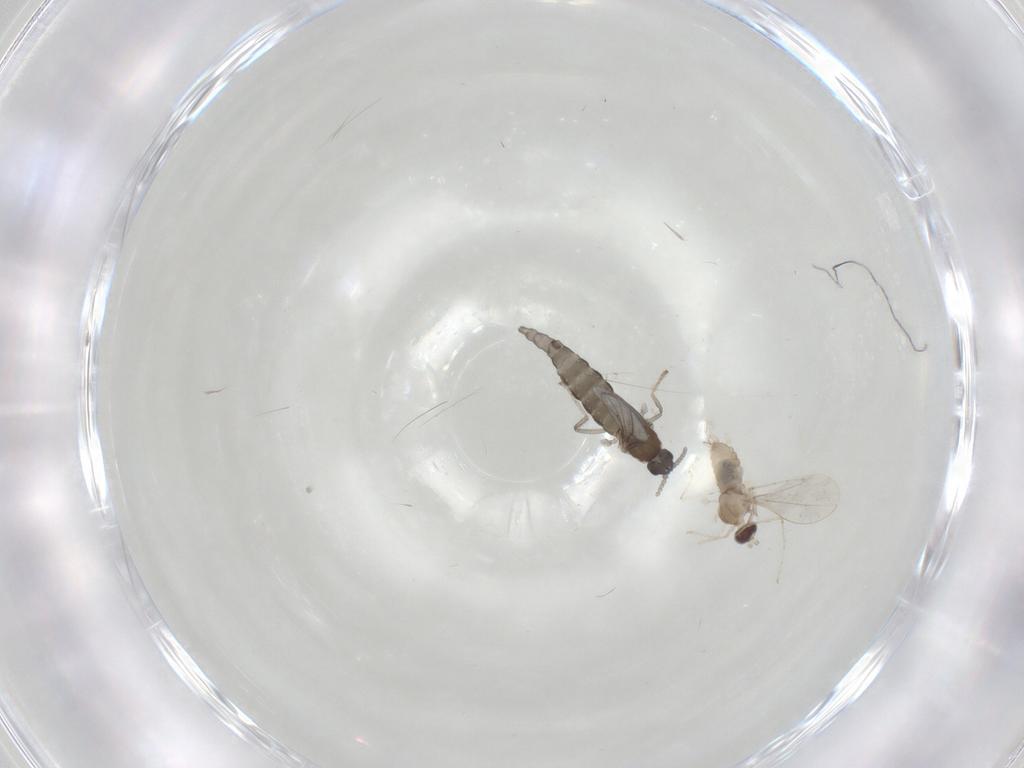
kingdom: Animalia
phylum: Arthropoda
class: Insecta
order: Diptera
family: Cecidomyiidae
